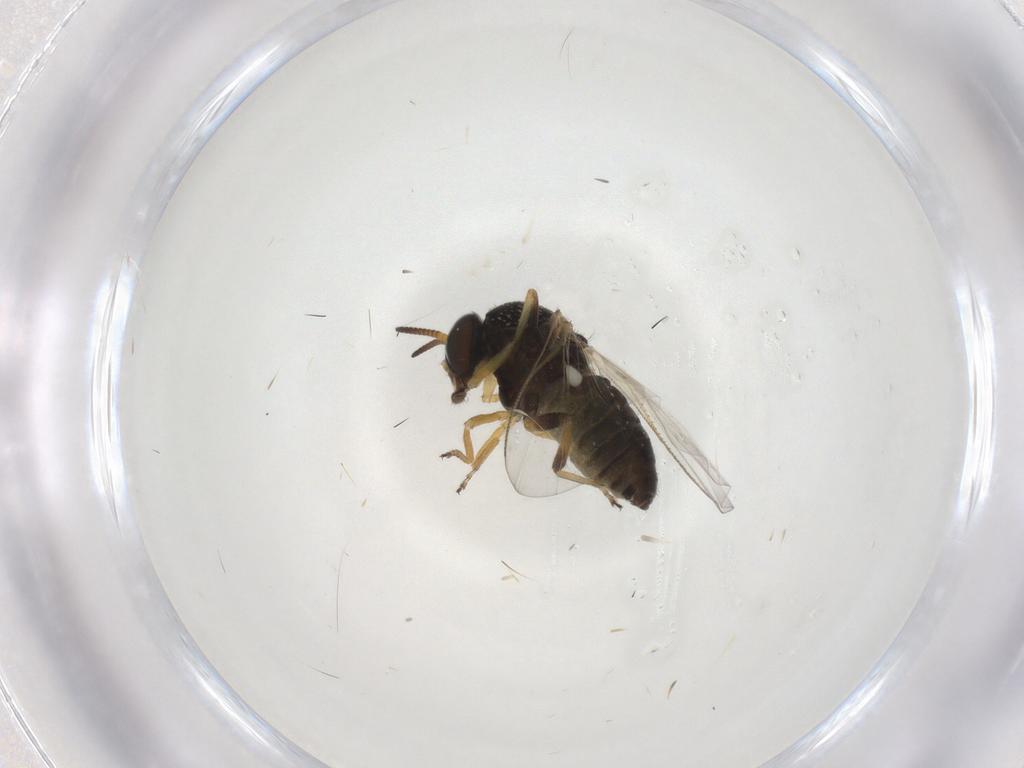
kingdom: Animalia
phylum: Arthropoda
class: Insecta
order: Diptera
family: Simuliidae
